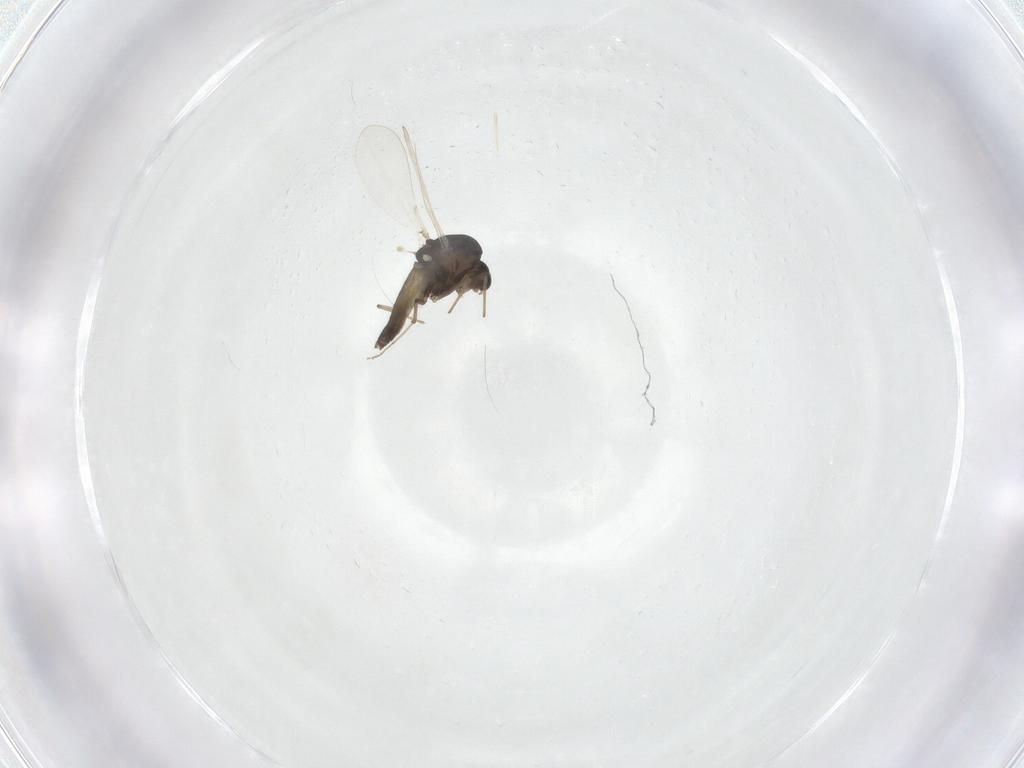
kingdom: Animalia
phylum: Arthropoda
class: Insecta
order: Diptera
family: Chironomidae
